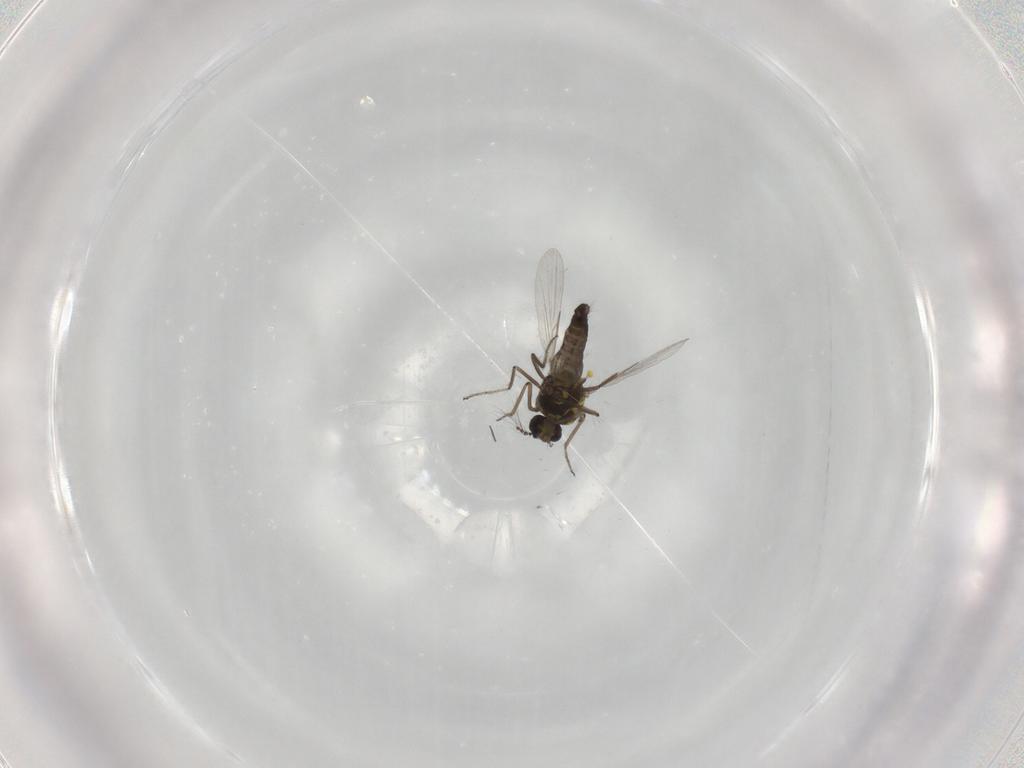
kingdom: Animalia
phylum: Arthropoda
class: Insecta
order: Diptera
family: Ceratopogonidae
